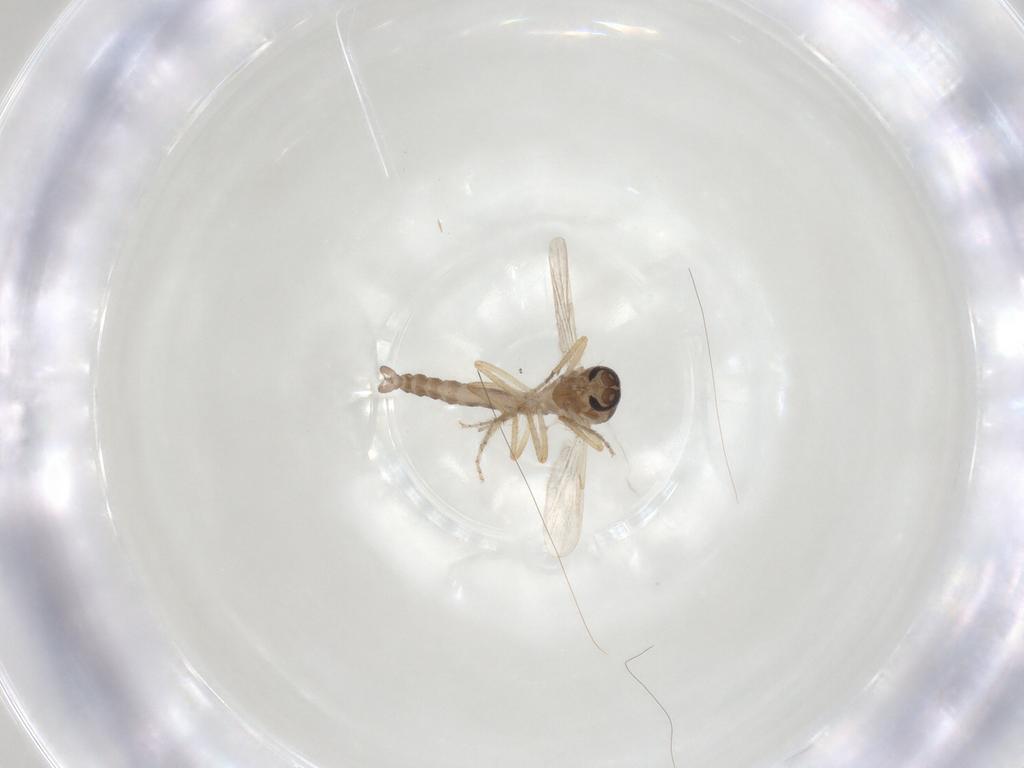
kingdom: Animalia
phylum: Arthropoda
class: Insecta
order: Diptera
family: Ceratopogonidae
